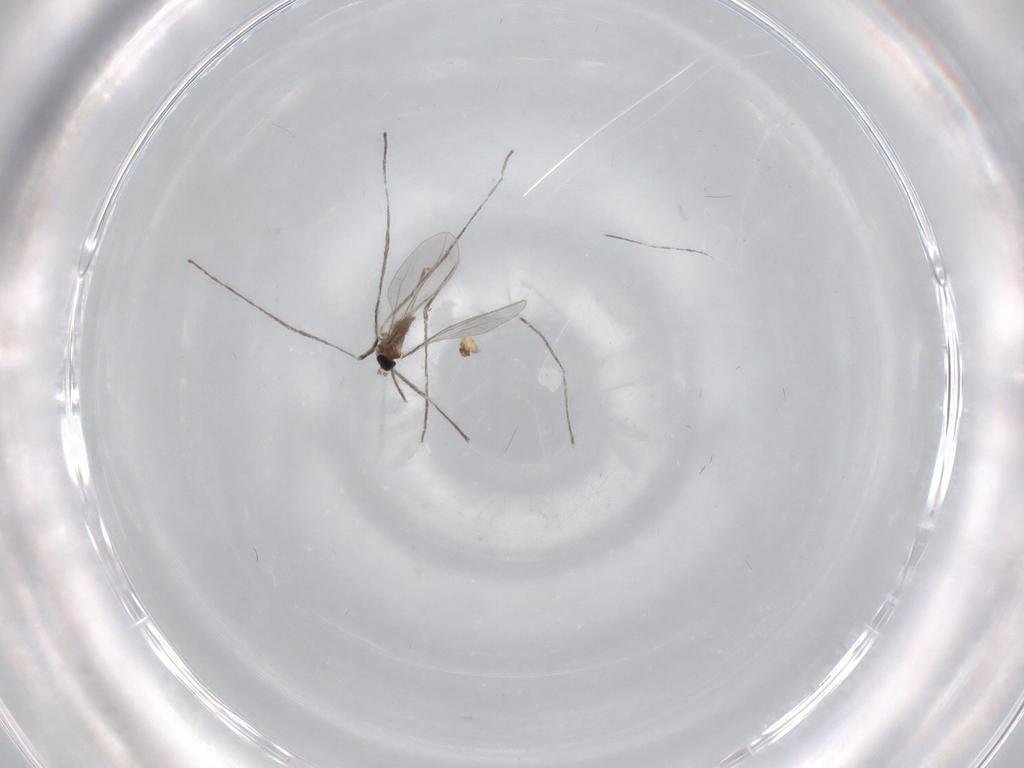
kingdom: Animalia
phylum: Arthropoda
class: Insecta
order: Diptera
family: Cecidomyiidae
